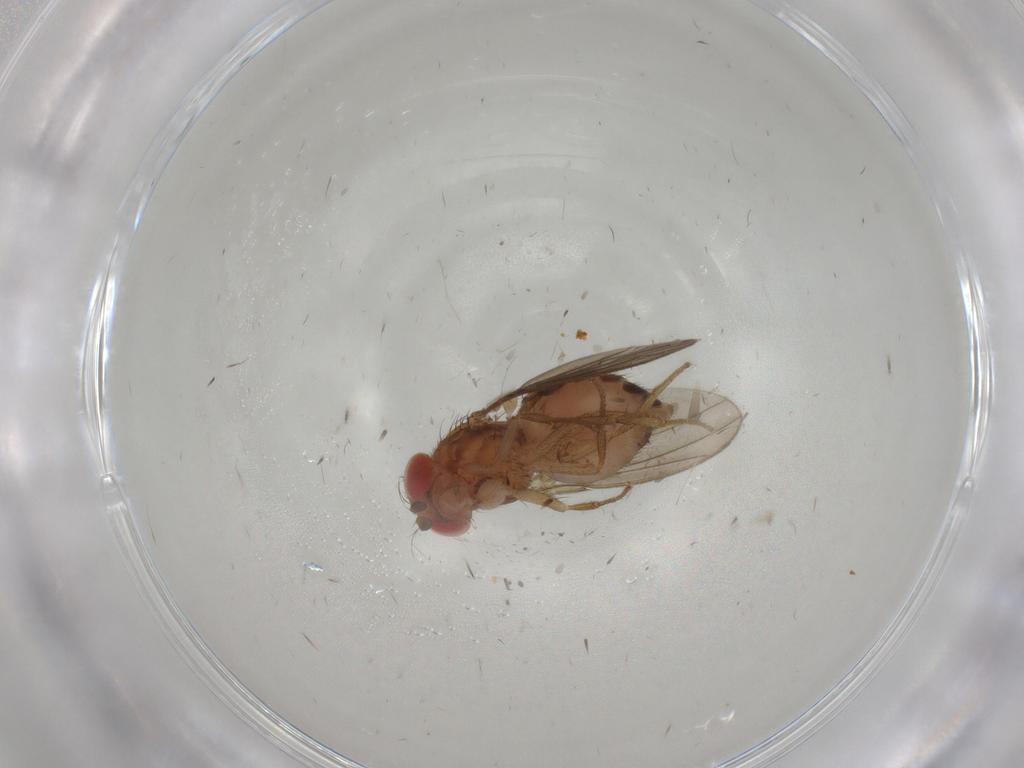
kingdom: Animalia
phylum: Arthropoda
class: Insecta
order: Diptera
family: Drosophilidae
